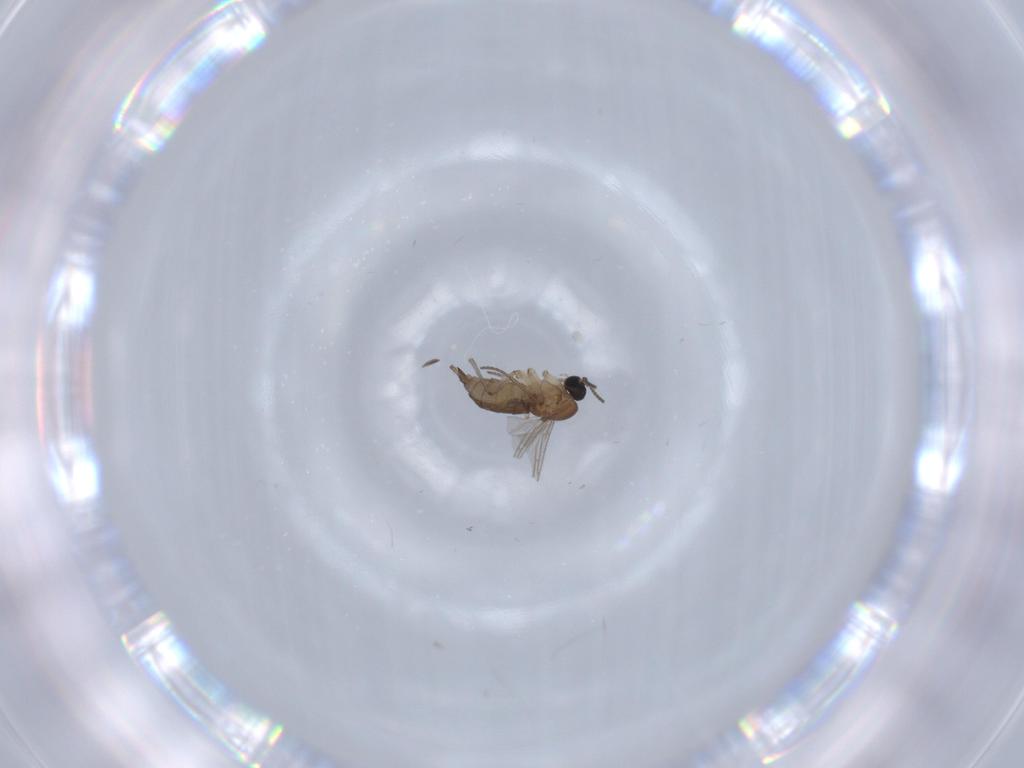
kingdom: Animalia
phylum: Arthropoda
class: Insecta
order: Diptera
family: Sciaridae
